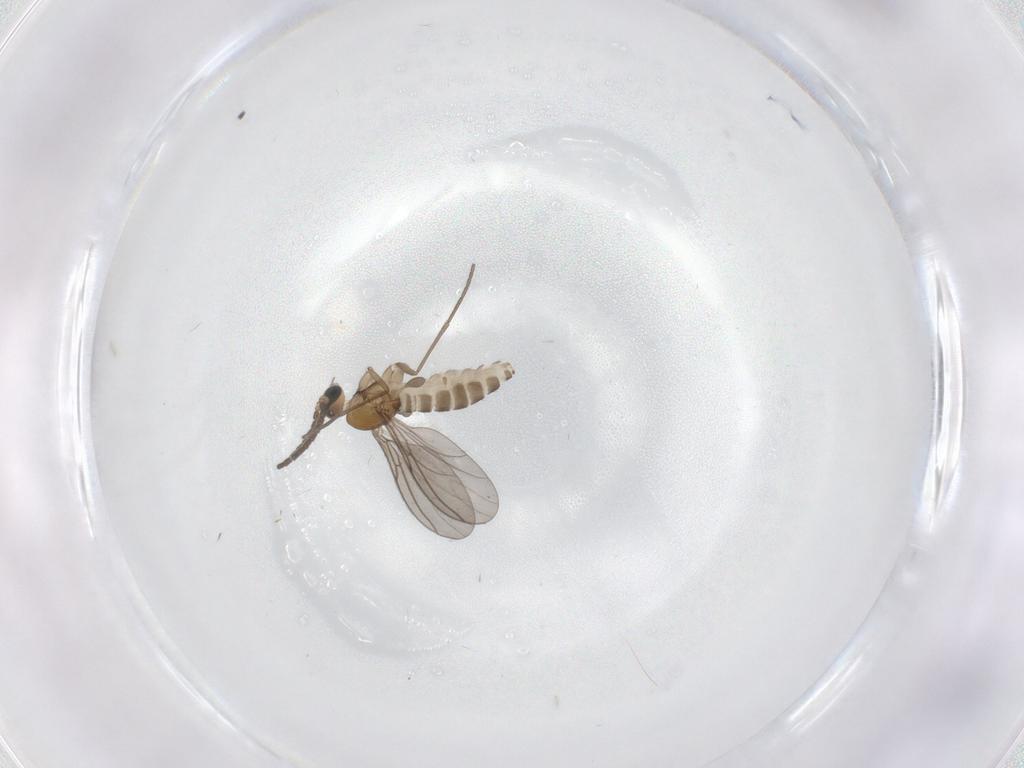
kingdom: Animalia
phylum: Arthropoda
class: Insecta
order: Diptera
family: Sciaridae
